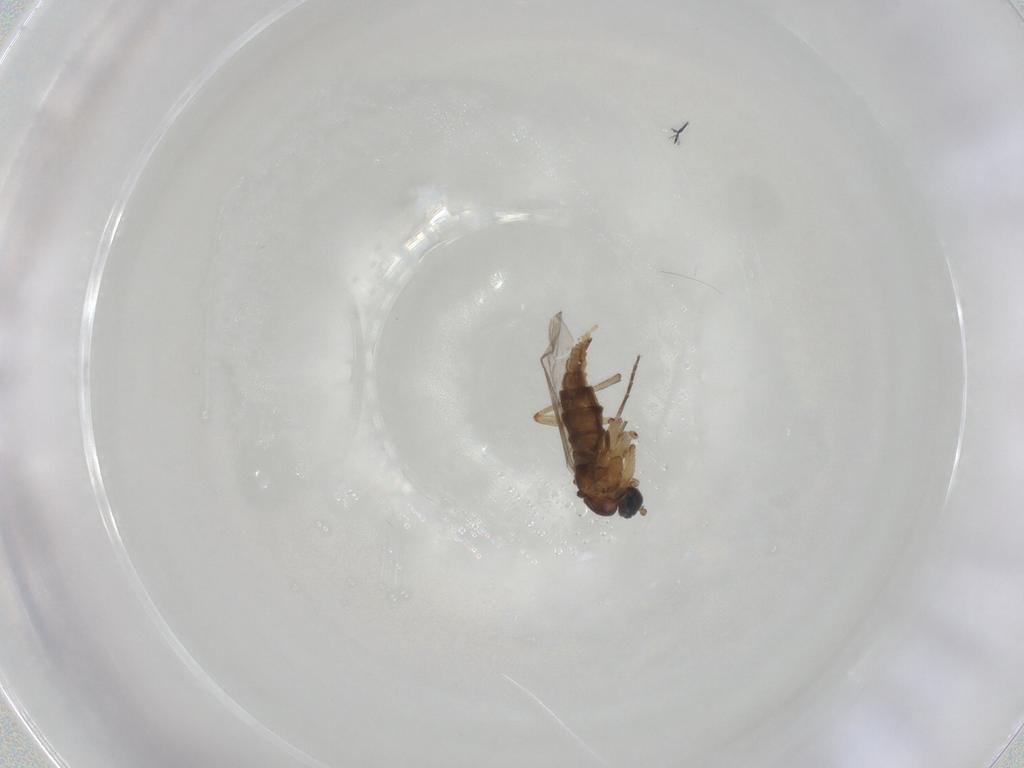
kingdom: Animalia
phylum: Arthropoda
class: Insecta
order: Diptera
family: Sciaridae
